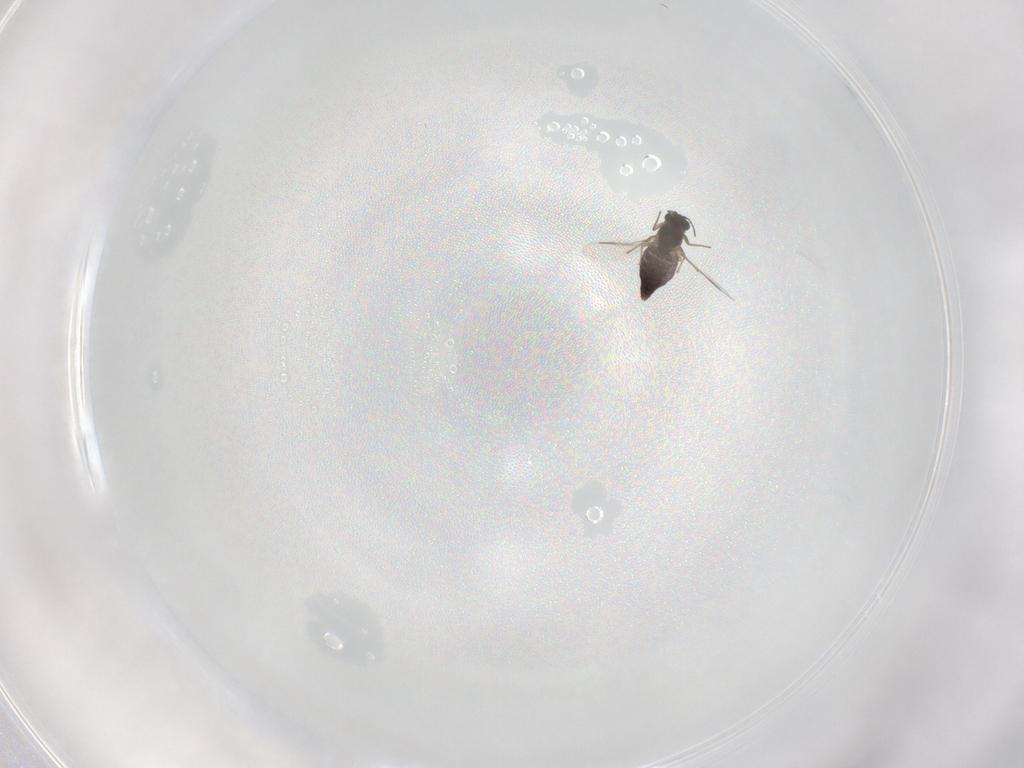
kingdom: Animalia
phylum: Arthropoda
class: Insecta
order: Diptera
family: Chironomidae
